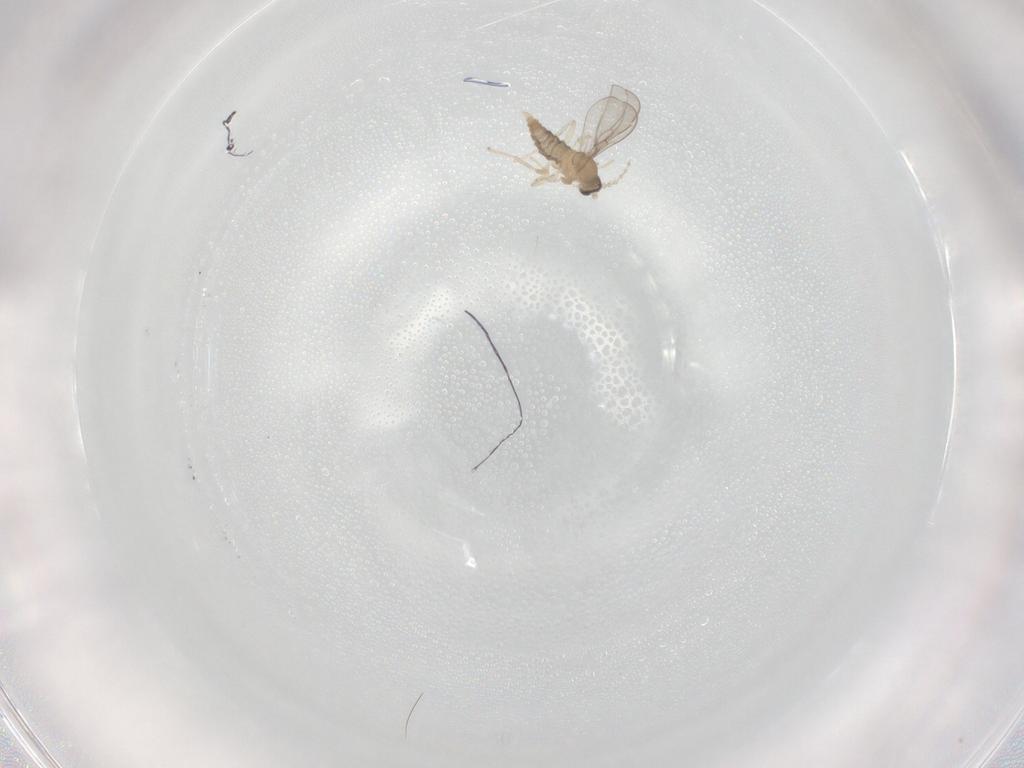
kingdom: Animalia
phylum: Arthropoda
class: Insecta
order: Diptera
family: Cecidomyiidae
